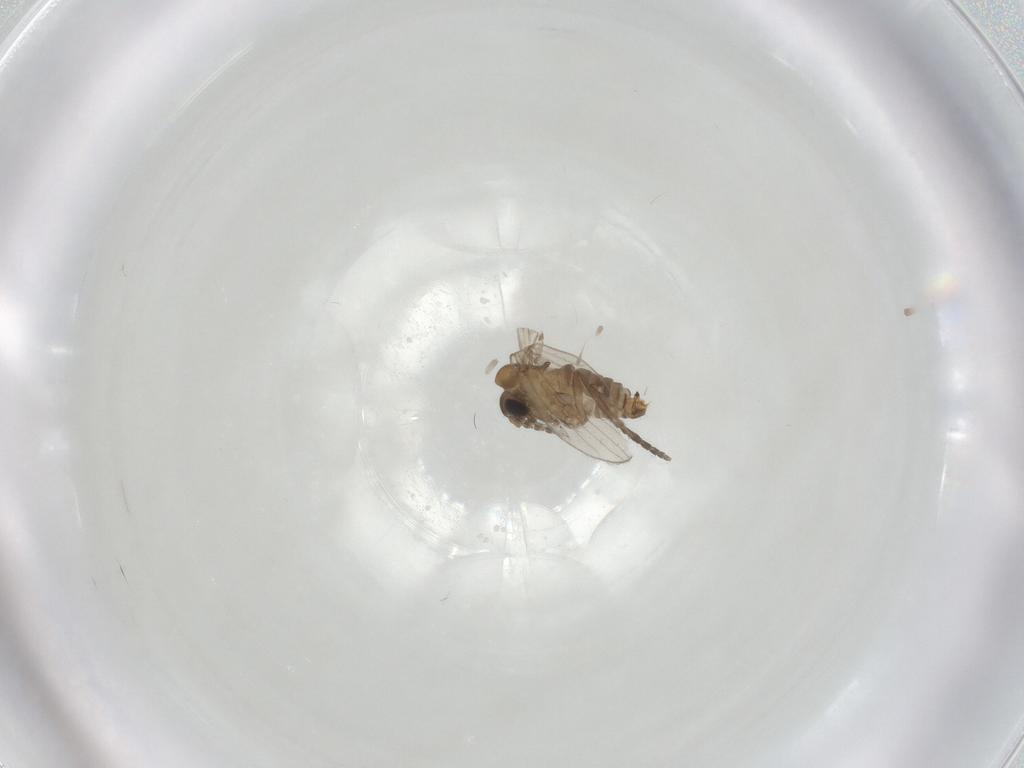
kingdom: Animalia
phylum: Arthropoda
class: Insecta
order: Diptera
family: Psychodidae
